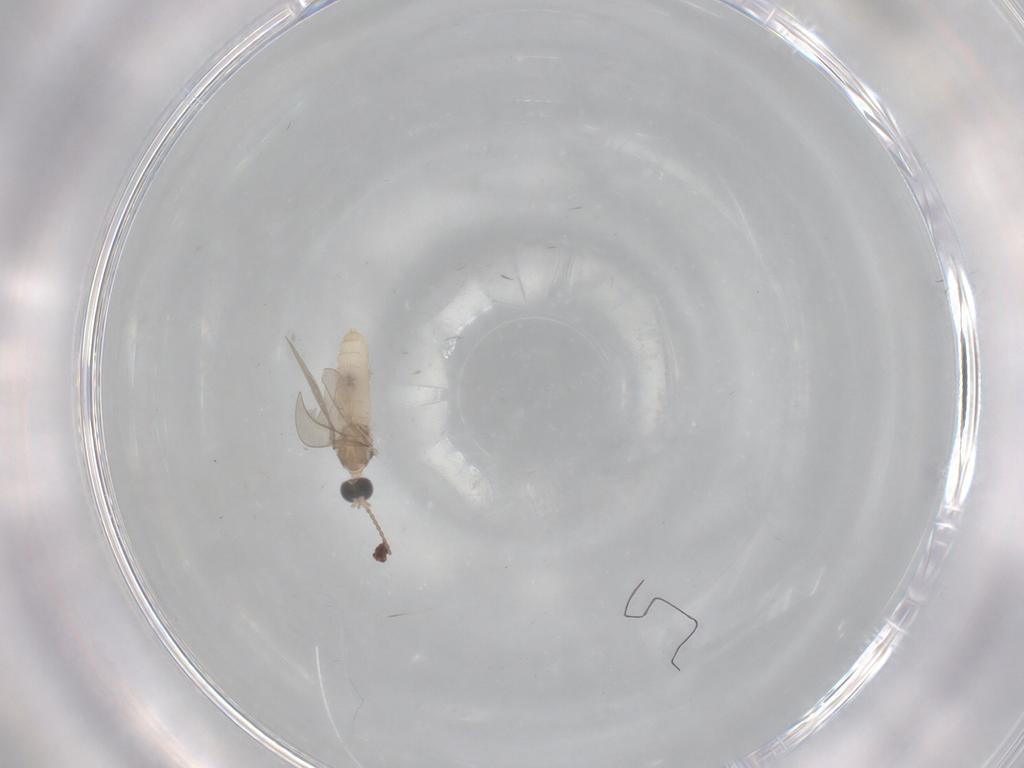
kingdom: Animalia
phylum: Arthropoda
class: Insecta
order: Diptera
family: Sciaridae
